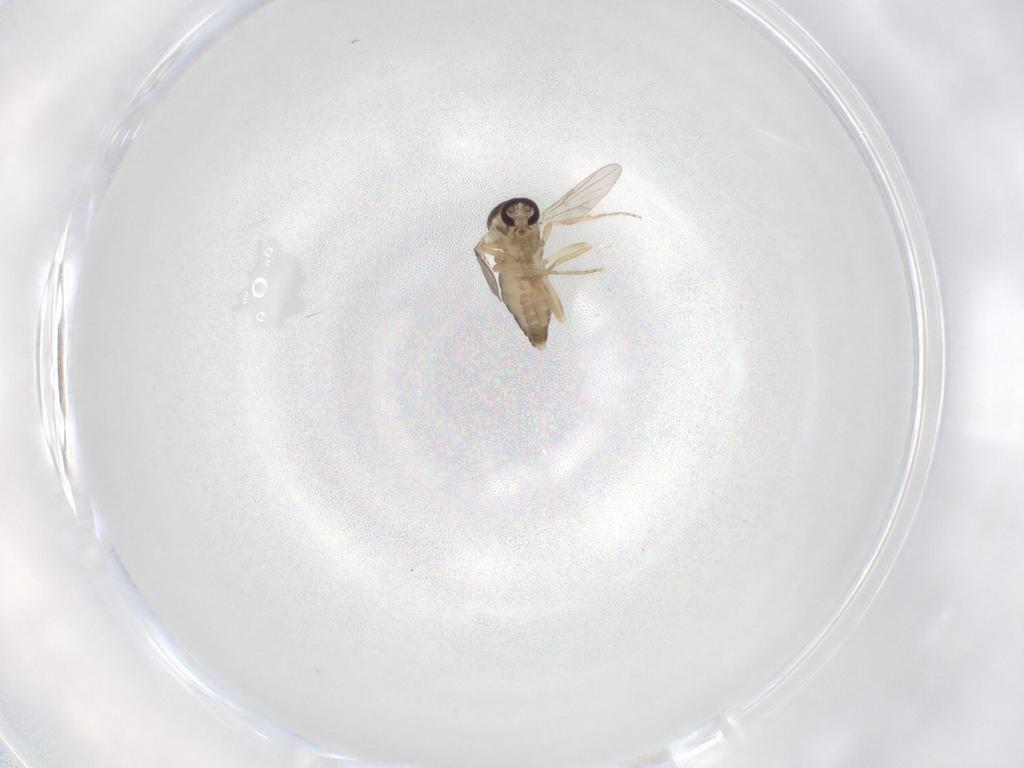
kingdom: Animalia
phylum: Arthropoda
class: Insecta
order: Diptera
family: Ceratopogonidae
